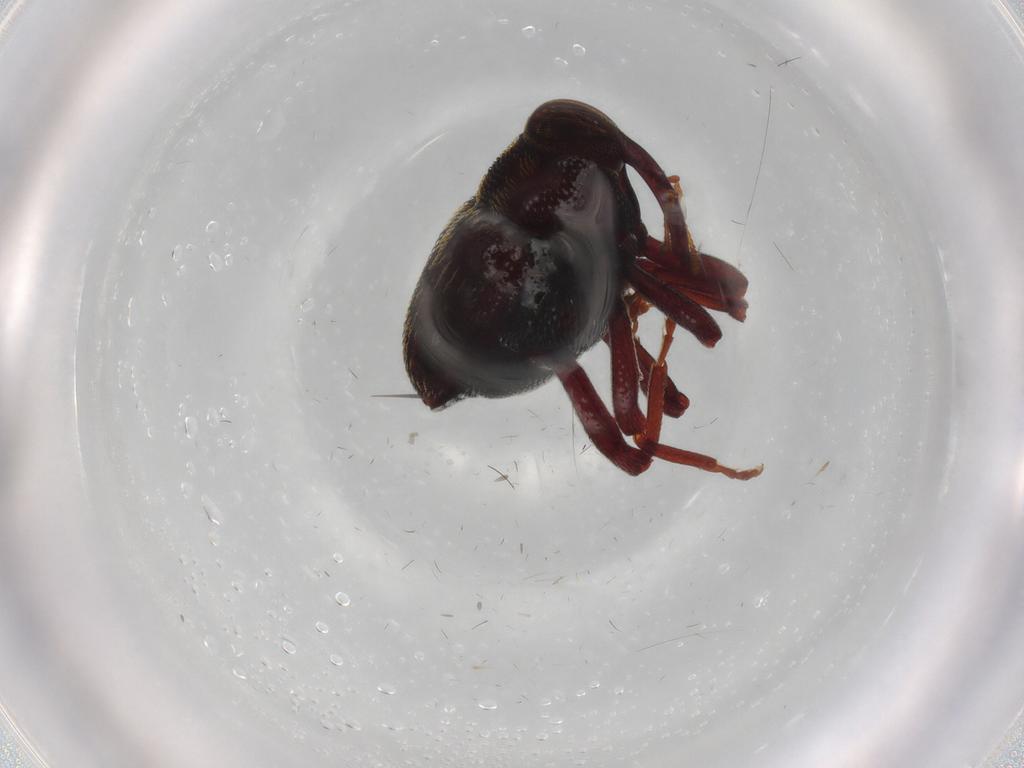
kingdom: Animalia
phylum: Arthropoda
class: Insecta
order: Coleoptera
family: Curculionidae
